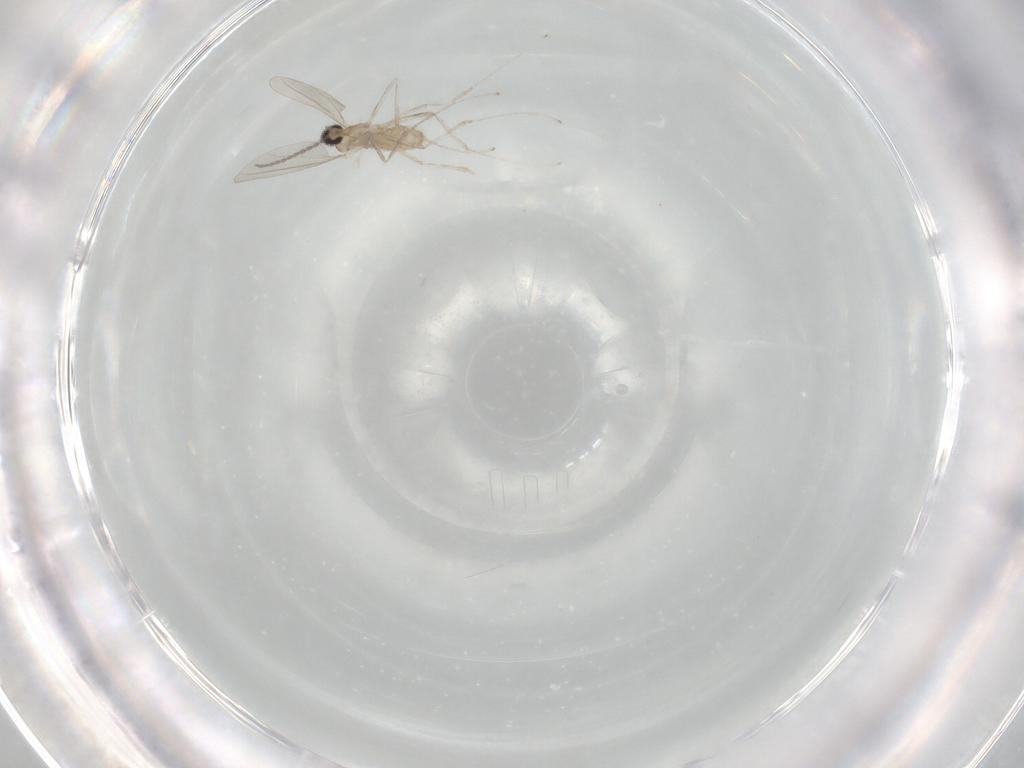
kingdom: Animalia
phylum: Arthropoda
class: Insecta
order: Diptera
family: Cecidomyiidae
